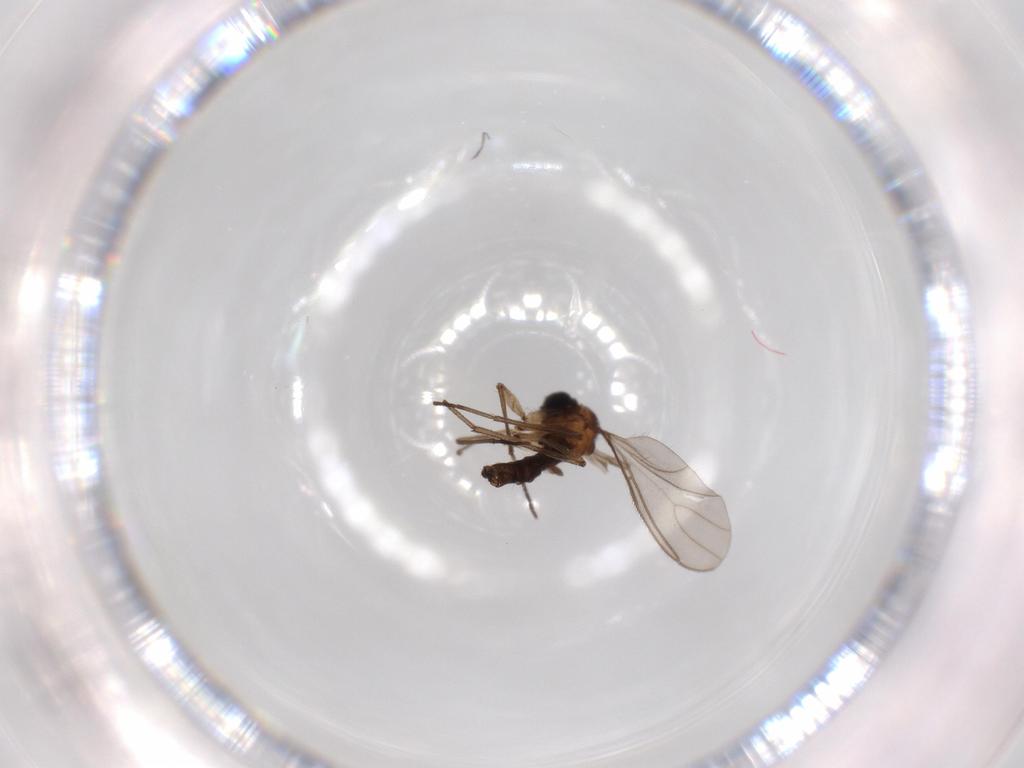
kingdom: Animalia
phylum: Arthropoda
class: Insecta
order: Diptera
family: Sciaridae
